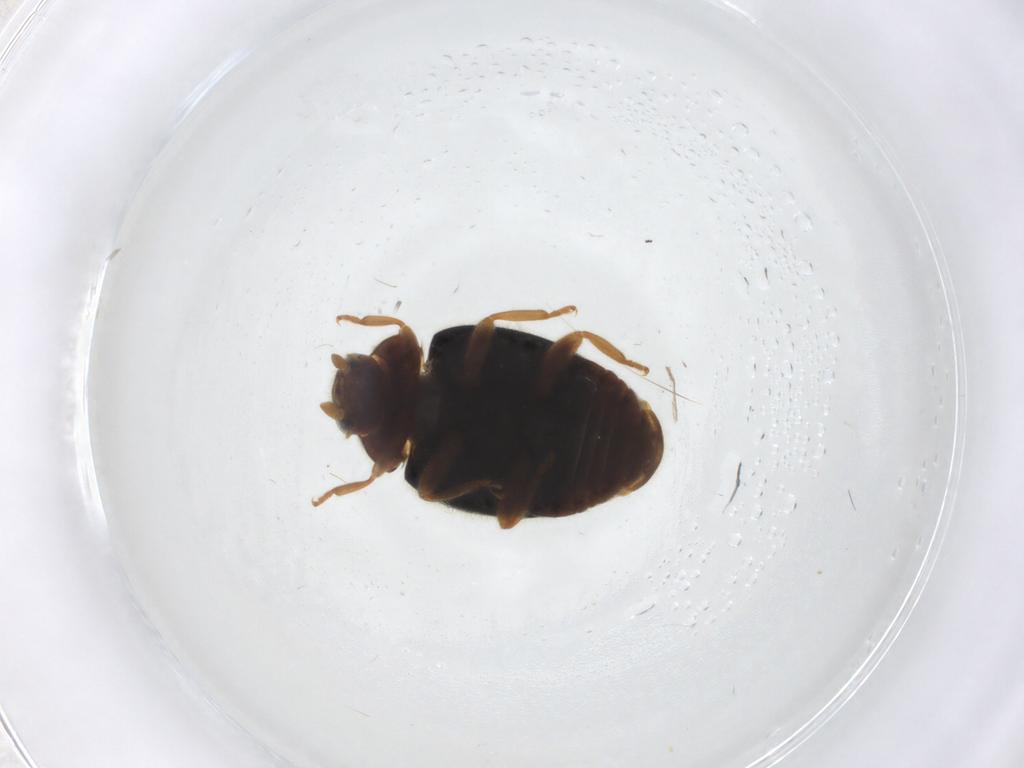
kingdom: Animalia
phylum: Arthropoda
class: Insecta
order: Coleoptera
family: Coccinellidae
